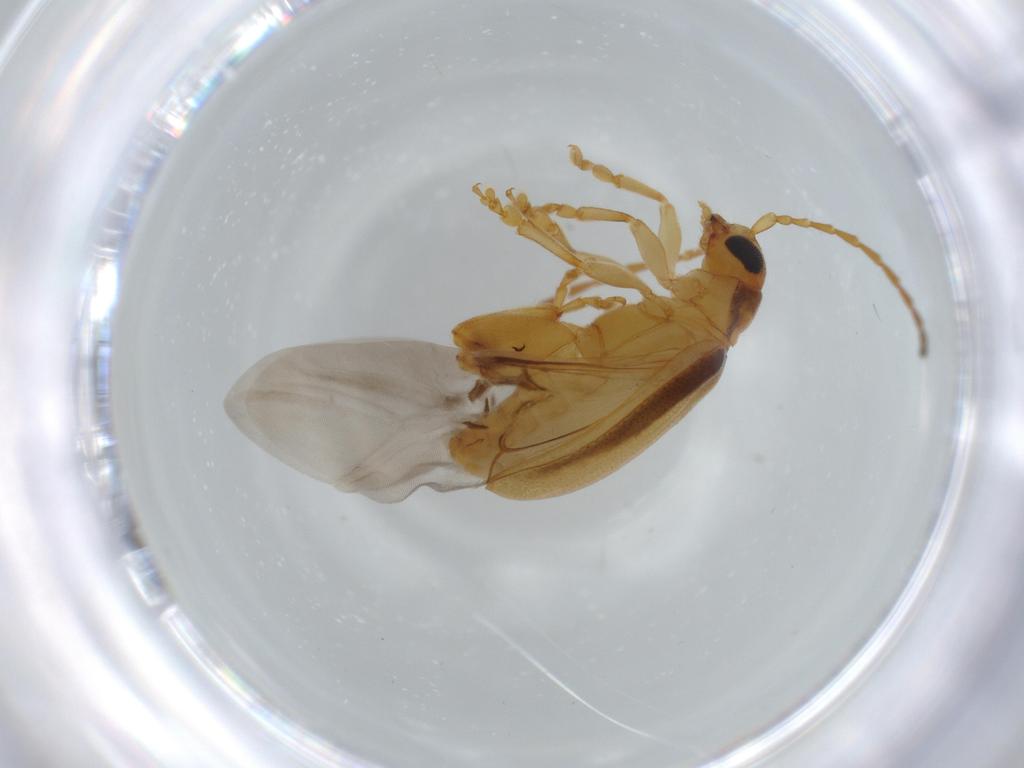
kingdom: Animalia
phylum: Arthropoda
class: Insecta
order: Coleoptera
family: Chrysomelidae
